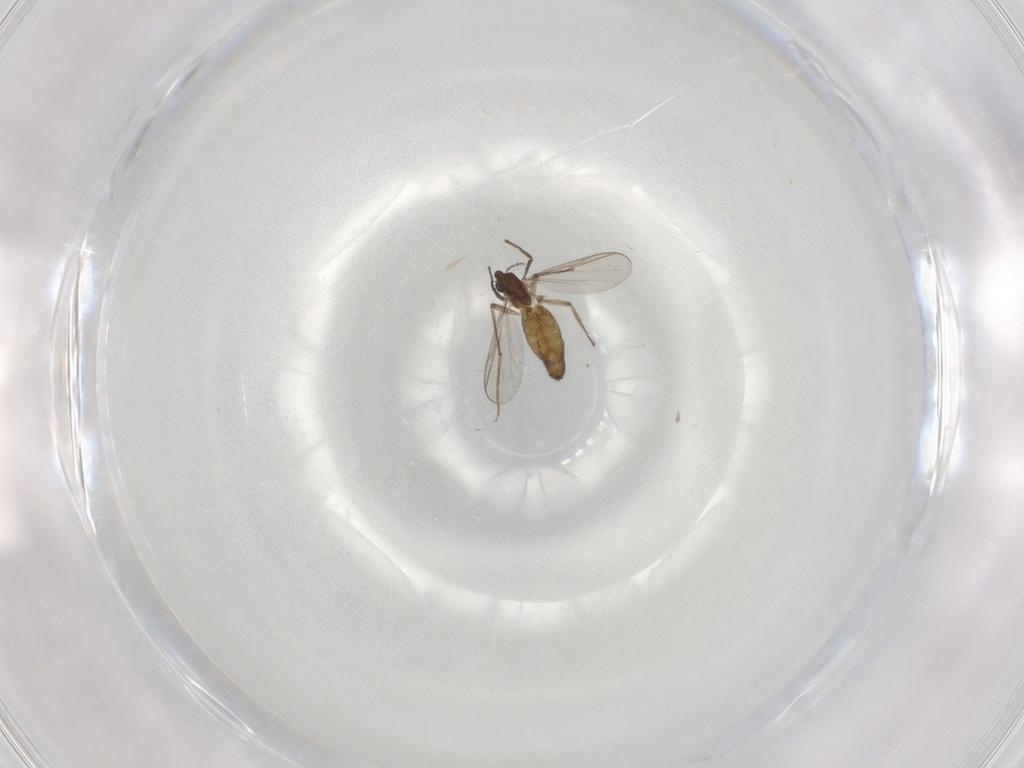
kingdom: Animalia
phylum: Arthropoda
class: Insecta
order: Diptera
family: Chironomidae
